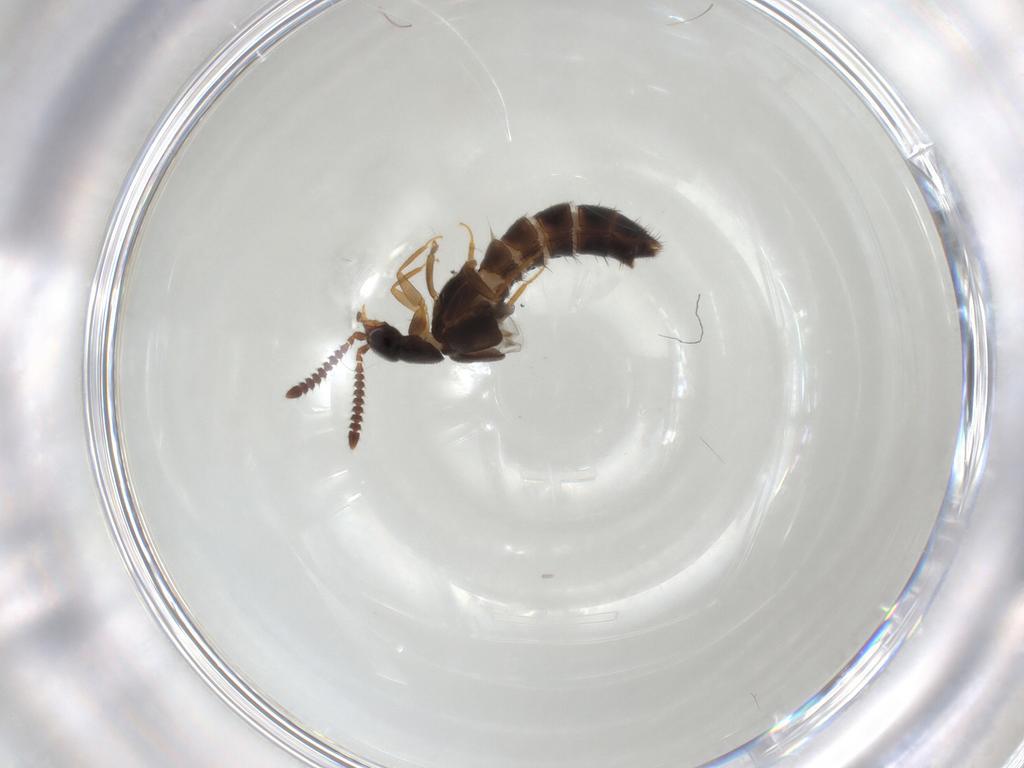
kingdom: Animalia
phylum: Arthropoda
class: Insecta
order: Coleoptera
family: Staphylinidae
